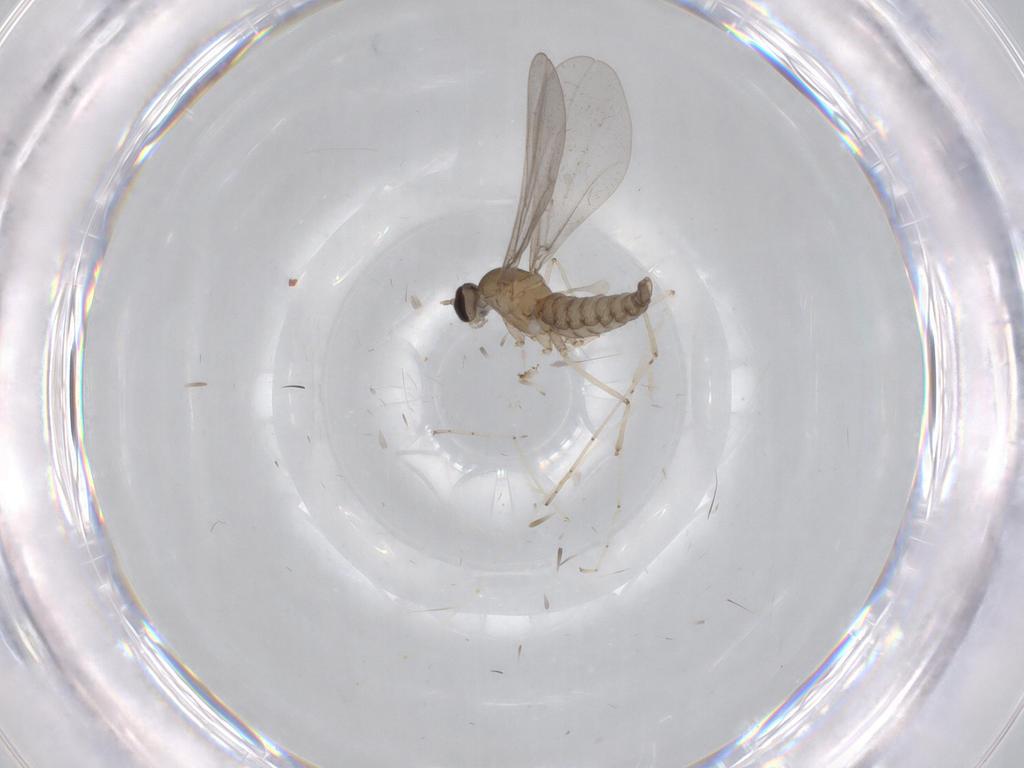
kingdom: Animalia
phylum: Arthropoda
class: Insecta
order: Diptera
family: Cecidomyiidae
